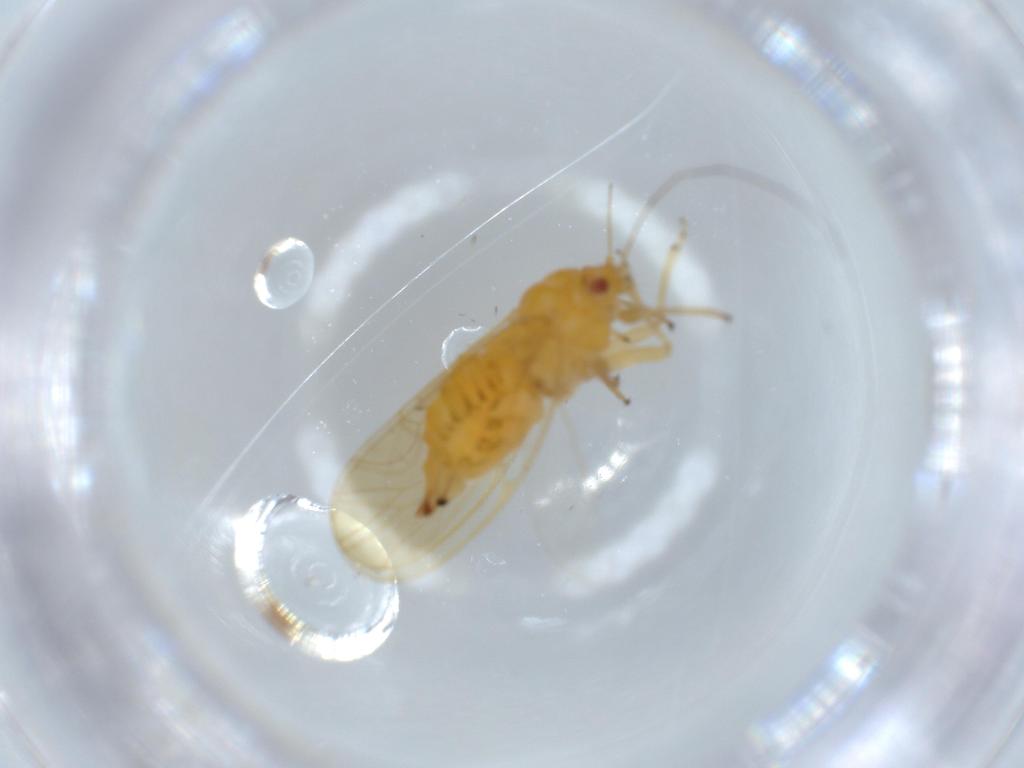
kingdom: Animalia
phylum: Arthropoda
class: Insecta
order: Hemiptera
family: Psyllidae
